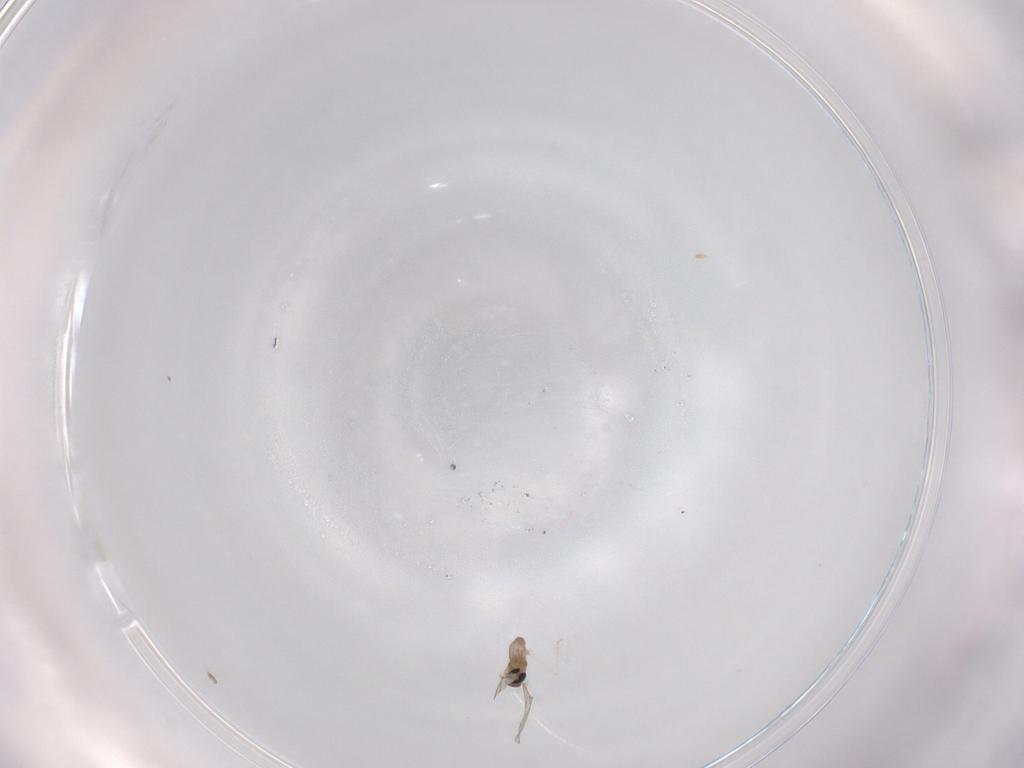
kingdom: Animalia
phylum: Arthropoda
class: Insecta
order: Diptera
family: Cecidomyiidae
